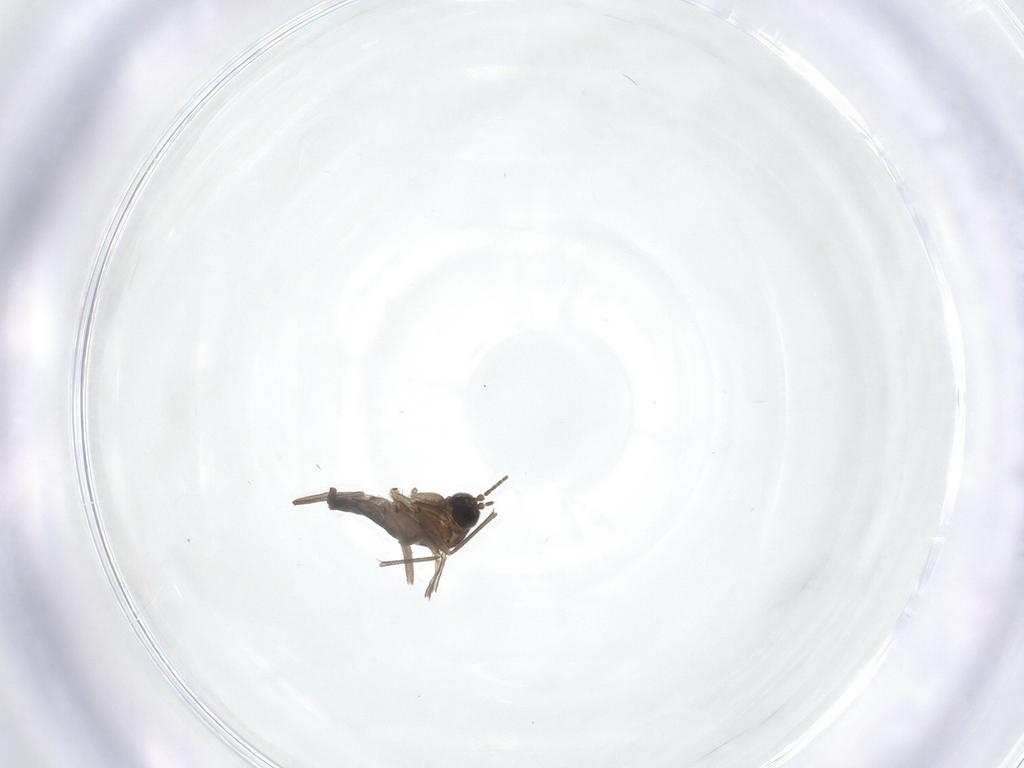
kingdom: Animalia
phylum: Arthropoda
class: Insecta
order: Diptera
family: Sciaridae
